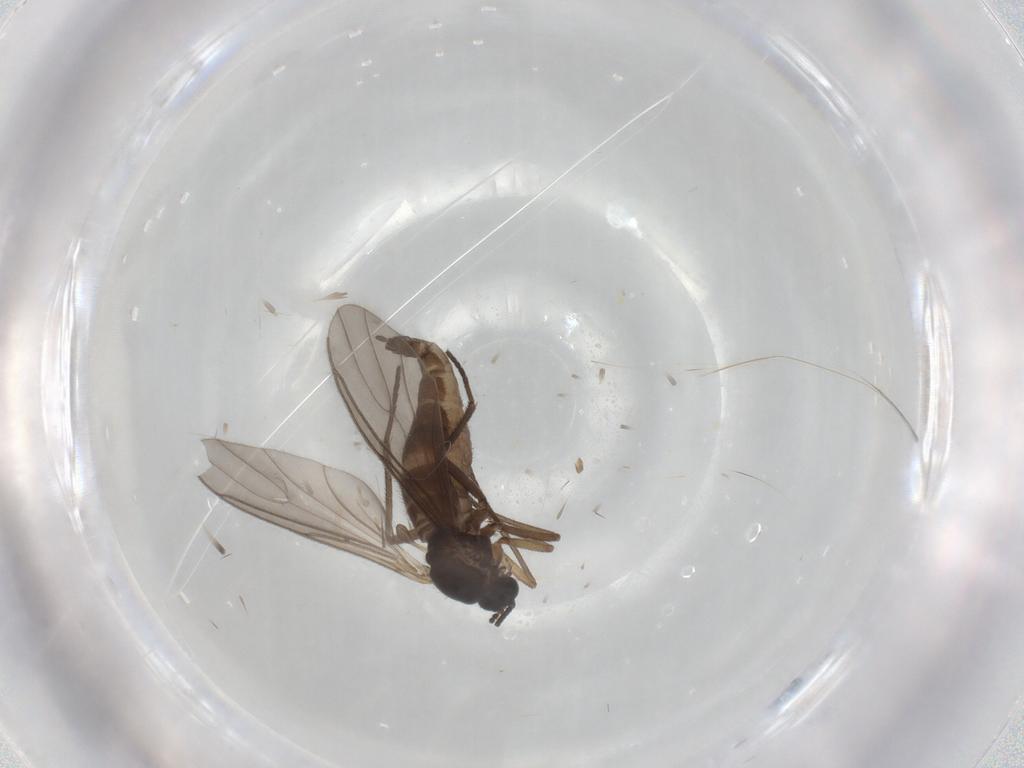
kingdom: Animalia
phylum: Arthropoda
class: Insecta
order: Diptera
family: Sciaridae
